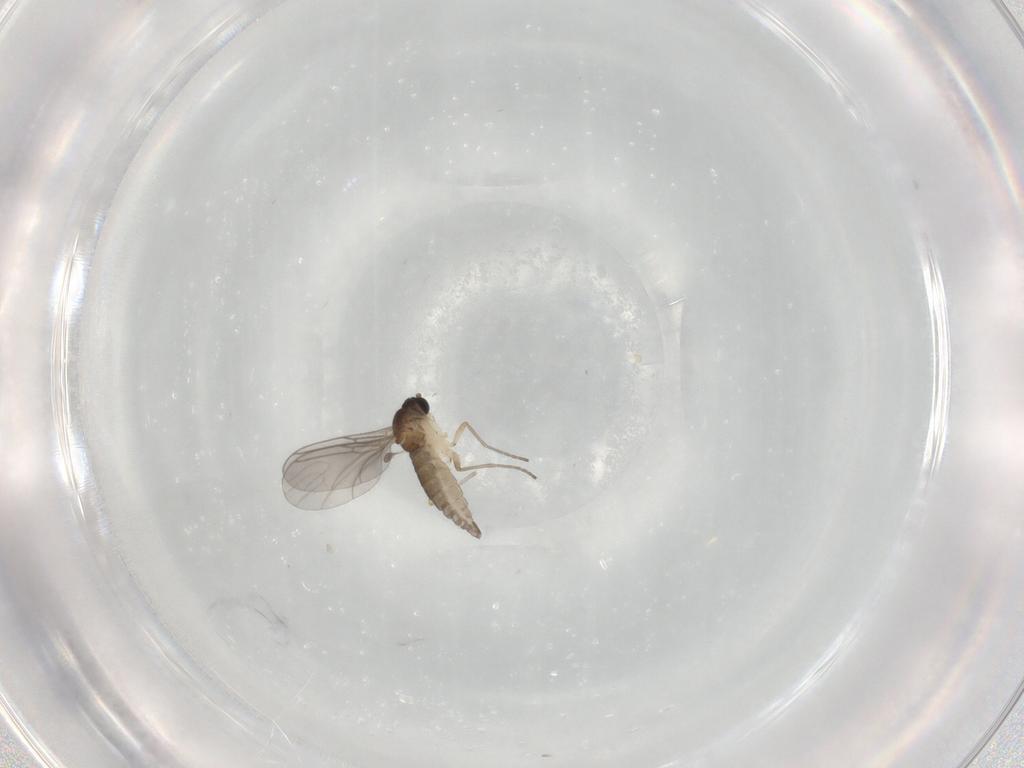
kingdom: Animalia
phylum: Arthropoda
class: Insecta
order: Diptera
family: Sciaridae
